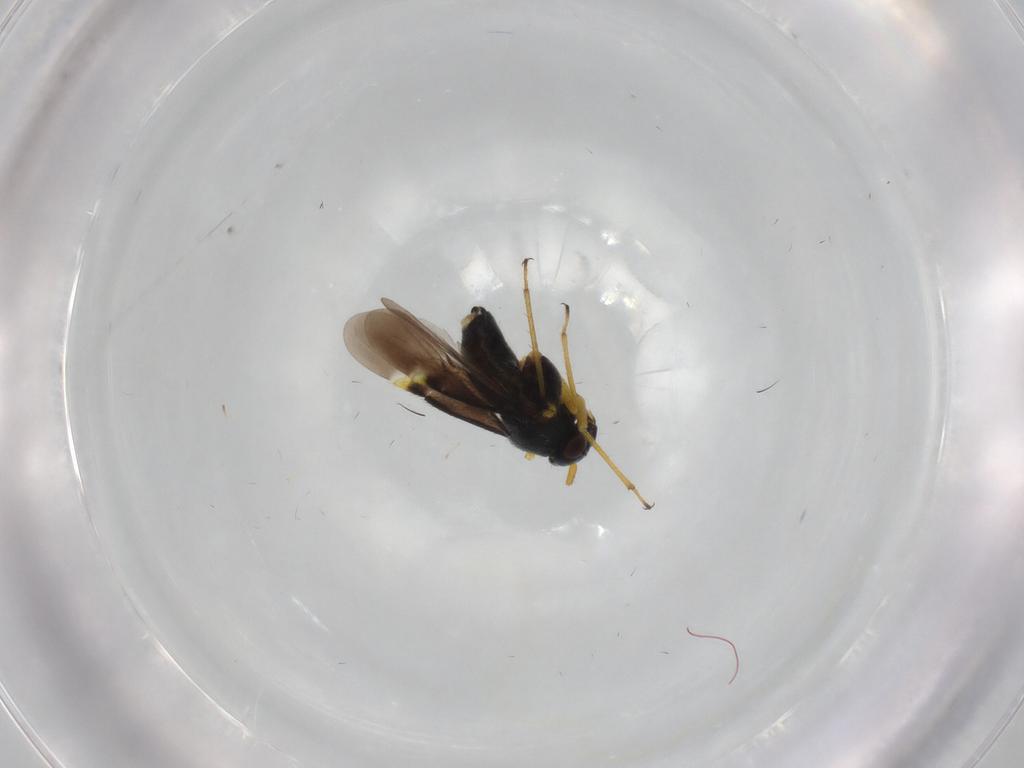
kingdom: Animalia
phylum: Arthropoda
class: Insecta
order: Hemiptera
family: Miridae
